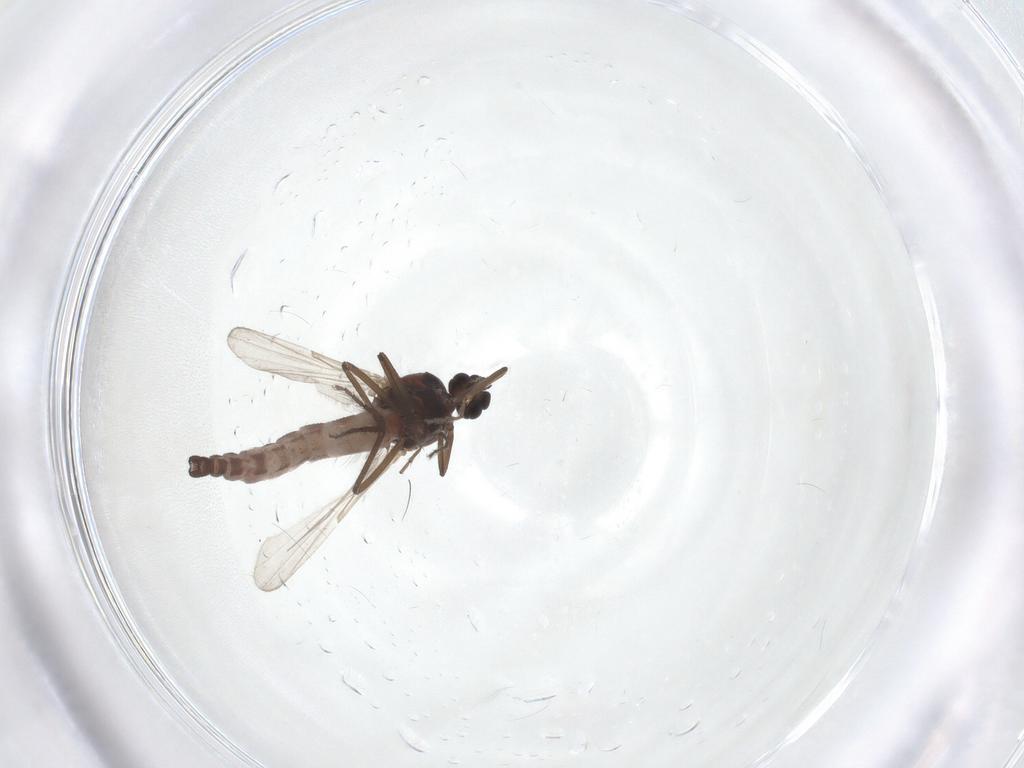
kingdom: Animalia
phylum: Arthropoda
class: Insecta
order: Diptera
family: Ceratopogonidae
